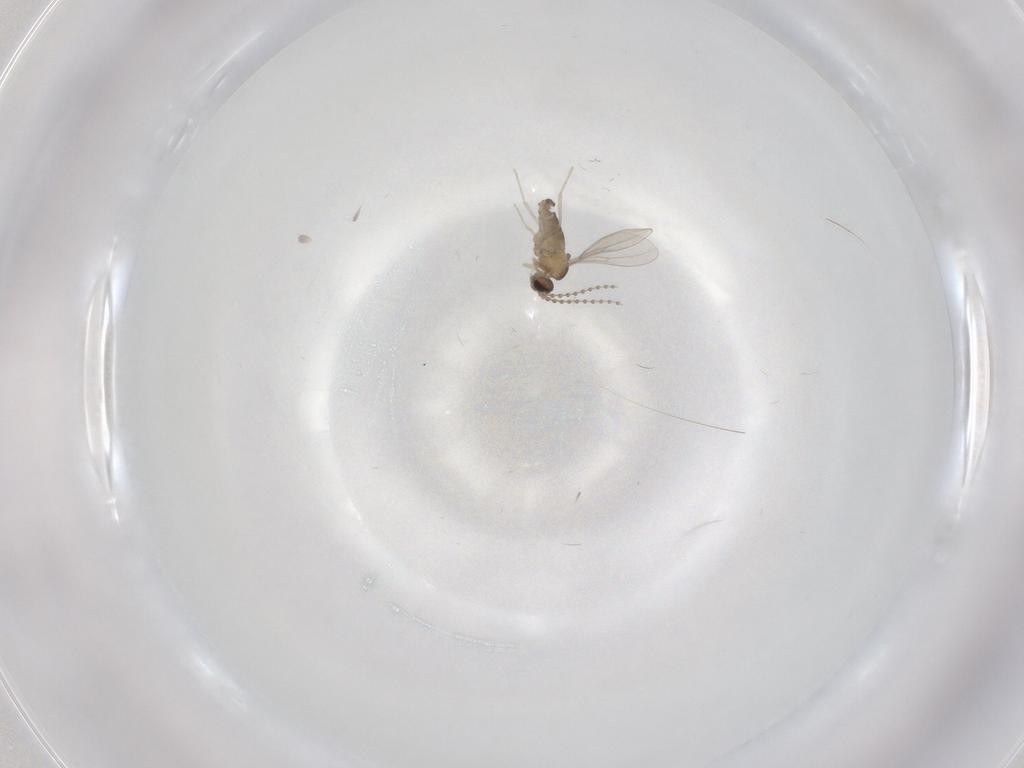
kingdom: Animalia
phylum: Arthropoda
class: Insecta
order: Diptera
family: Cecidomyiidae
